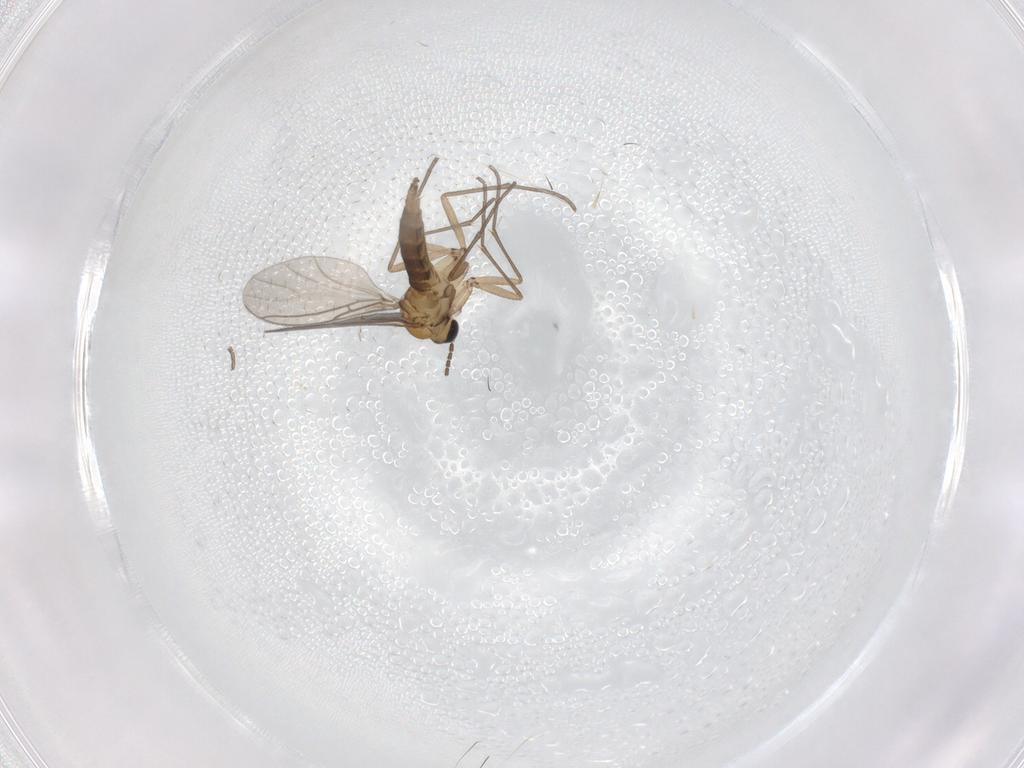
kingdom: Animalia
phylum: Arthropoda
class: Insecta
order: Diptera
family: Sciaridae
